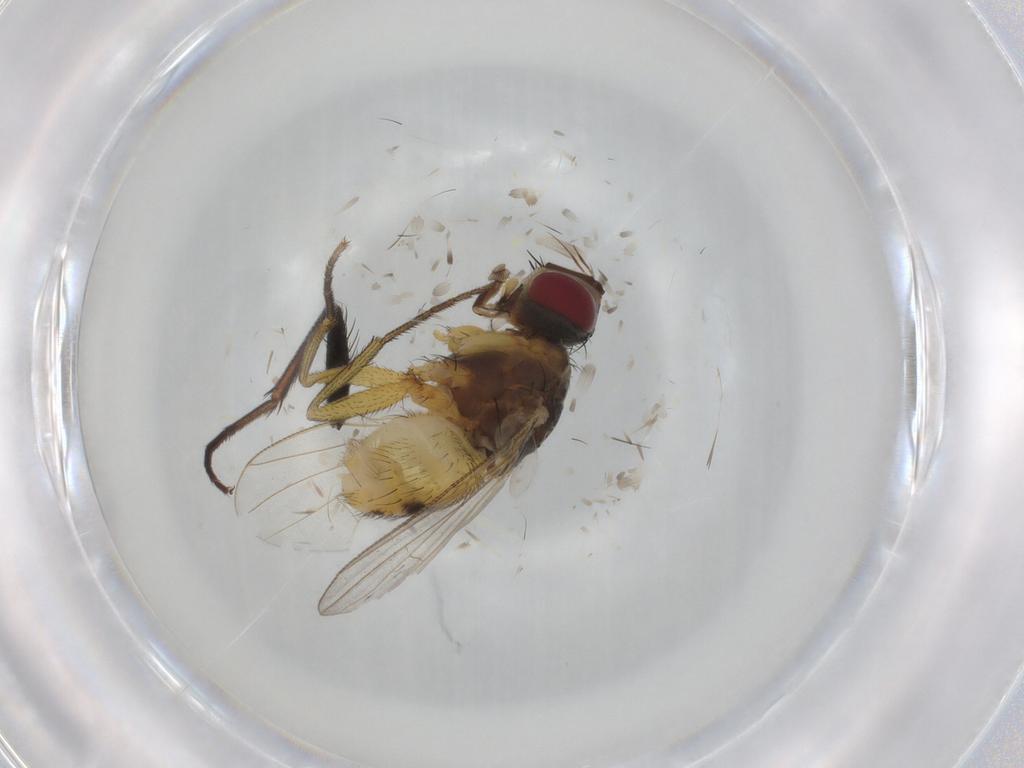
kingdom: Animalia
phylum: Arthropoda
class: Insecta
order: Diptera
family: Muscidae
